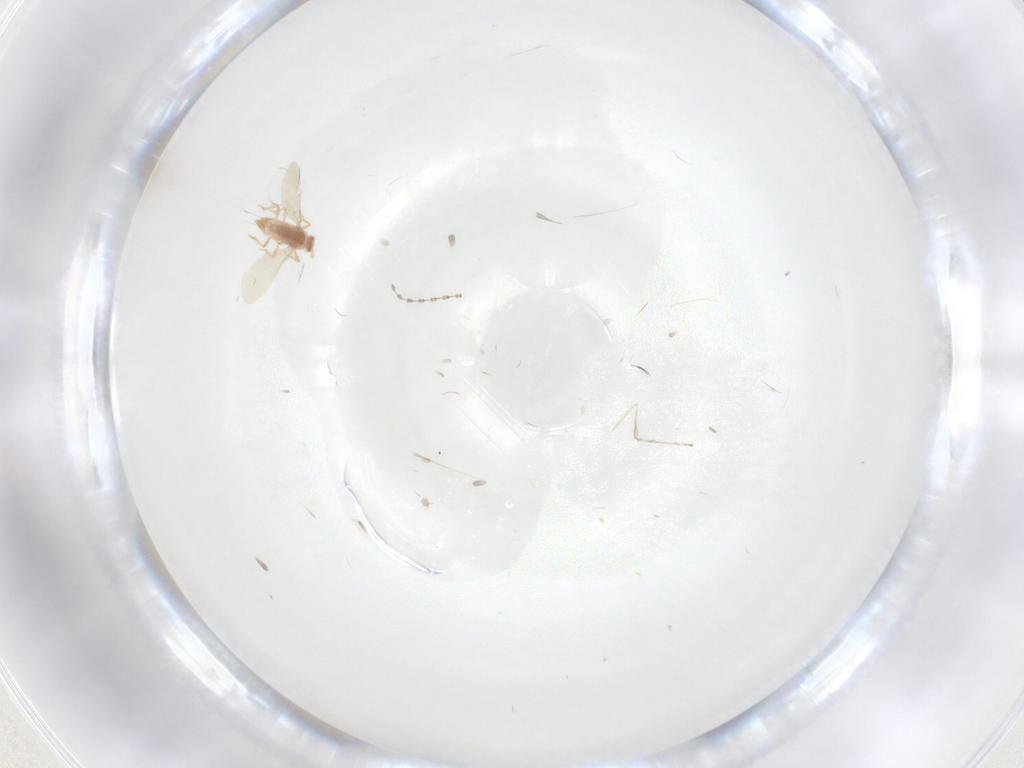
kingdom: Animalia
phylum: Arthropoda
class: Insecta
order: Diptera
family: Cecidomyiidae
